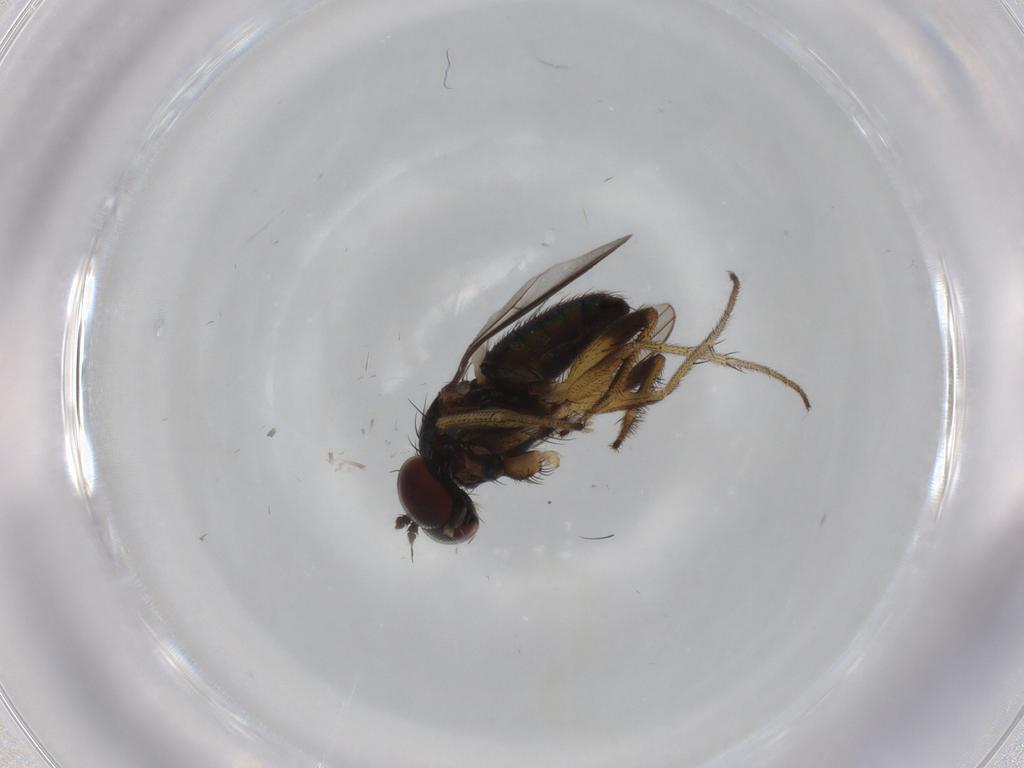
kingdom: Animalia
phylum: Arthropoda
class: Insecta
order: Diptera
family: Dolichopodidae
